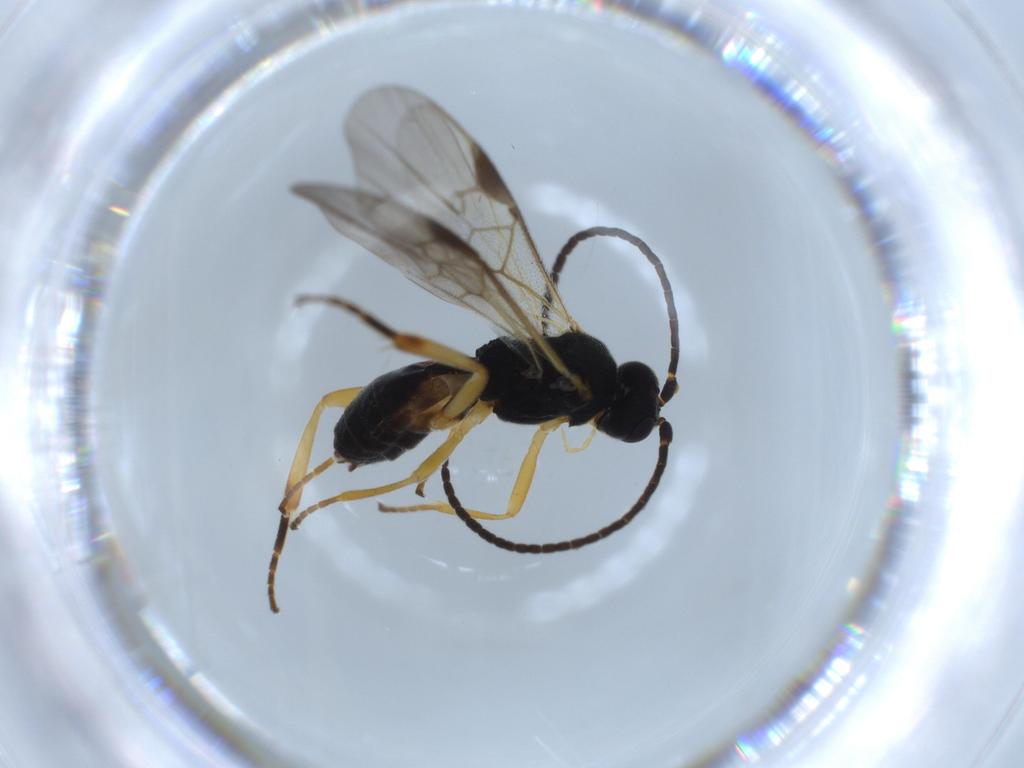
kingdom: Animalia
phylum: Arthropoda
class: Insecta
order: Hymenoptera
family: Braconidae
